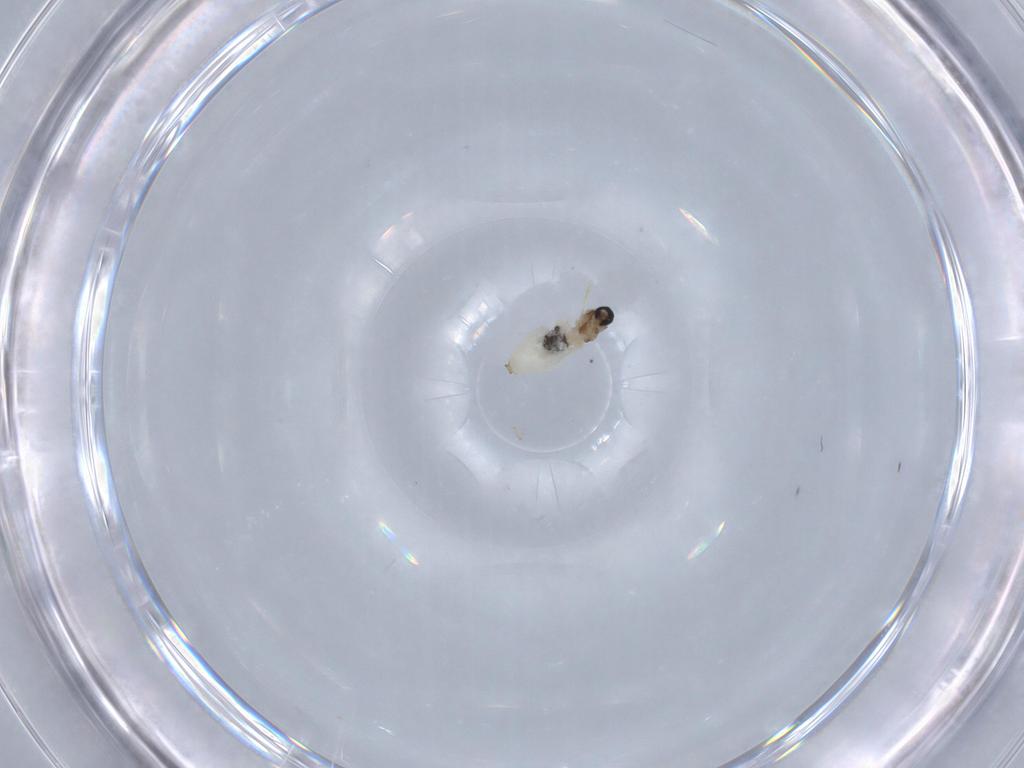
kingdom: Animalia
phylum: Arthropoda
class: Insecta
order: Diptera
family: Cecidomyiidae
